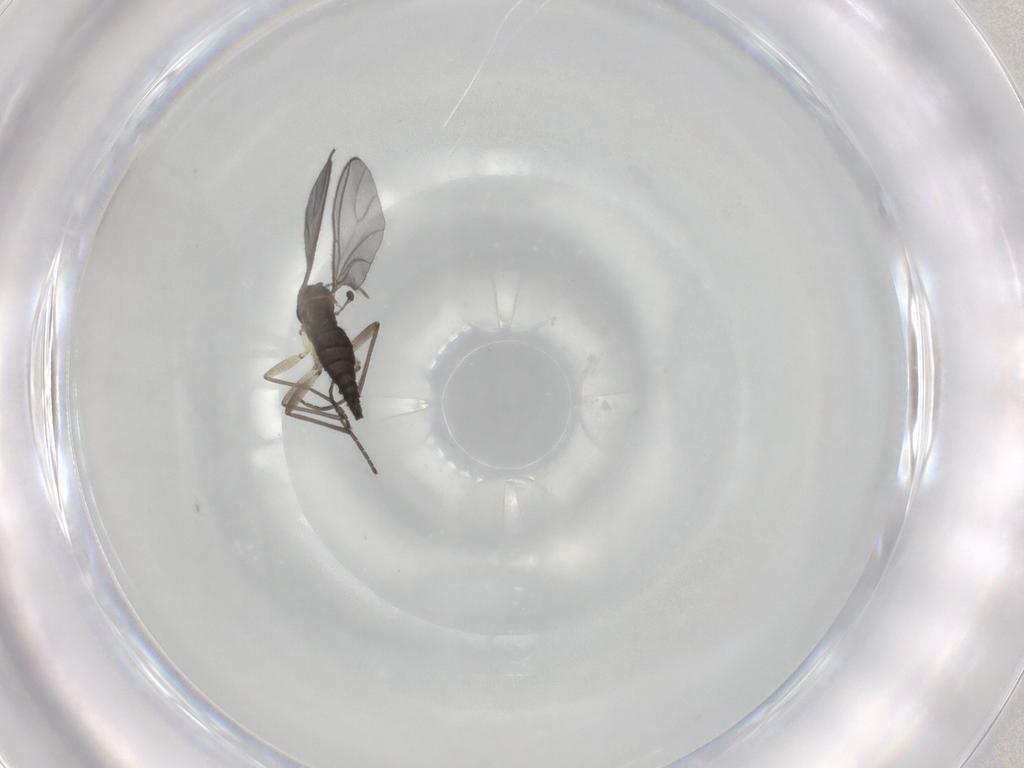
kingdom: Animalia
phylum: Arthropoda
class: Insecta
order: Diptera
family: Sciaridae
